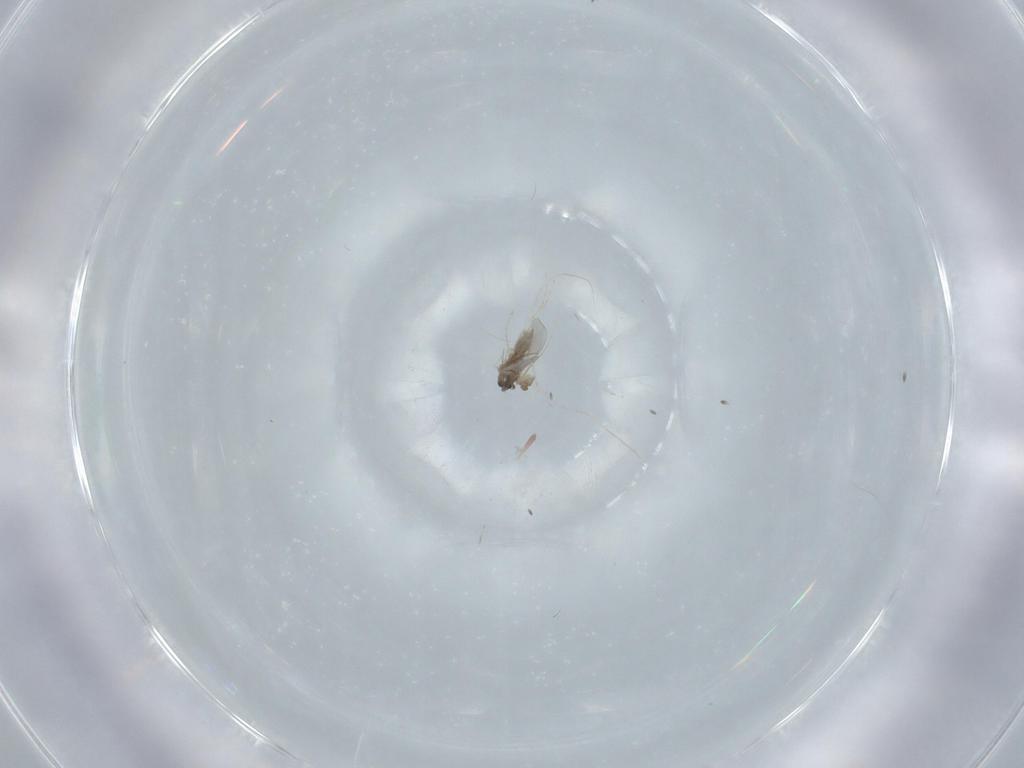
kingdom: Animalia
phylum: Arthropoda
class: Insecta
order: Diptera
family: Cecidomyiidae
